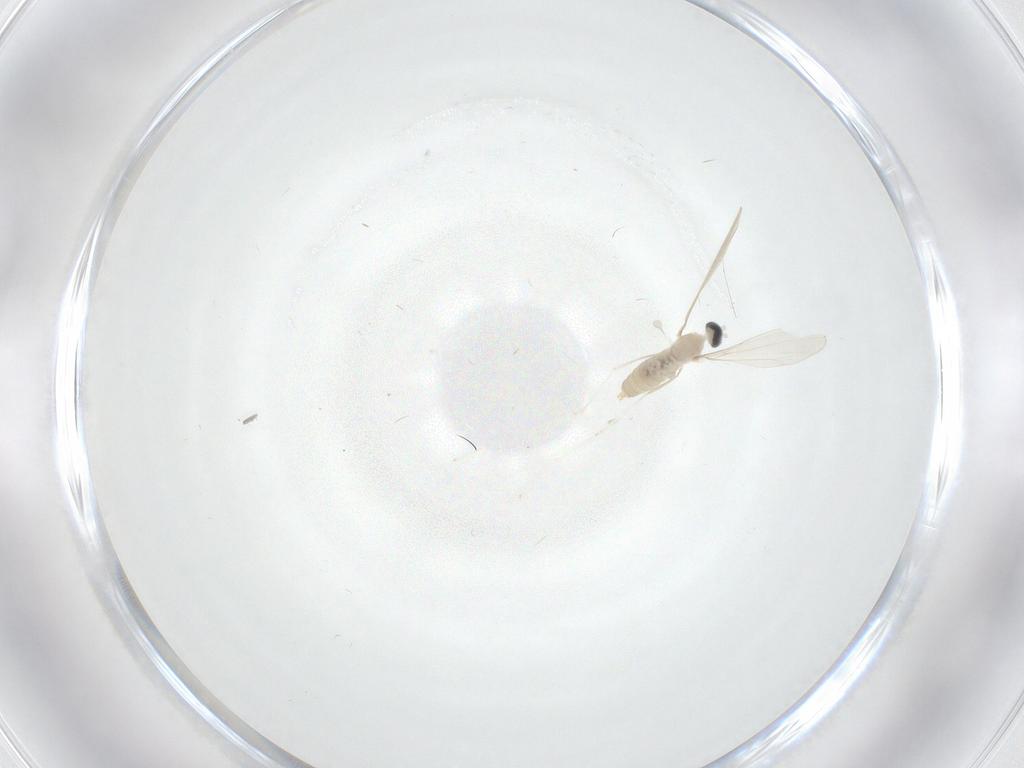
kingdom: Animalia
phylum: Arthropoda
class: Insecta
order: Diptera
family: Cecidomyiidae
